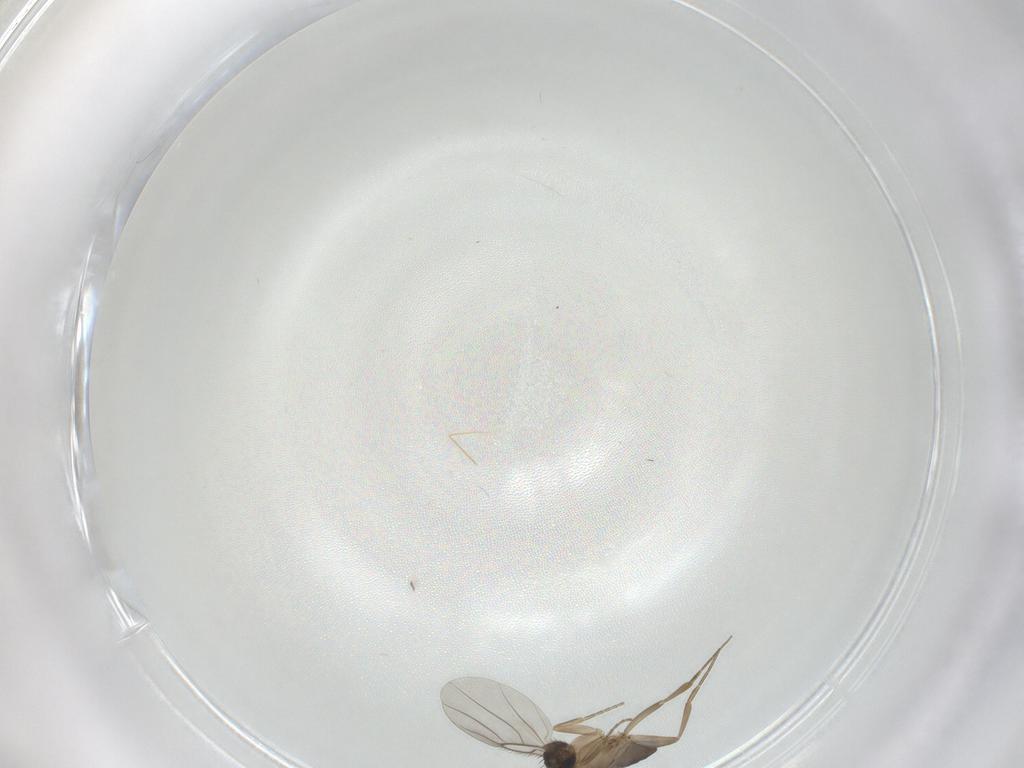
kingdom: Animalia
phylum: Arthropoda
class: Insecta
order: Diptera
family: Phoridae
